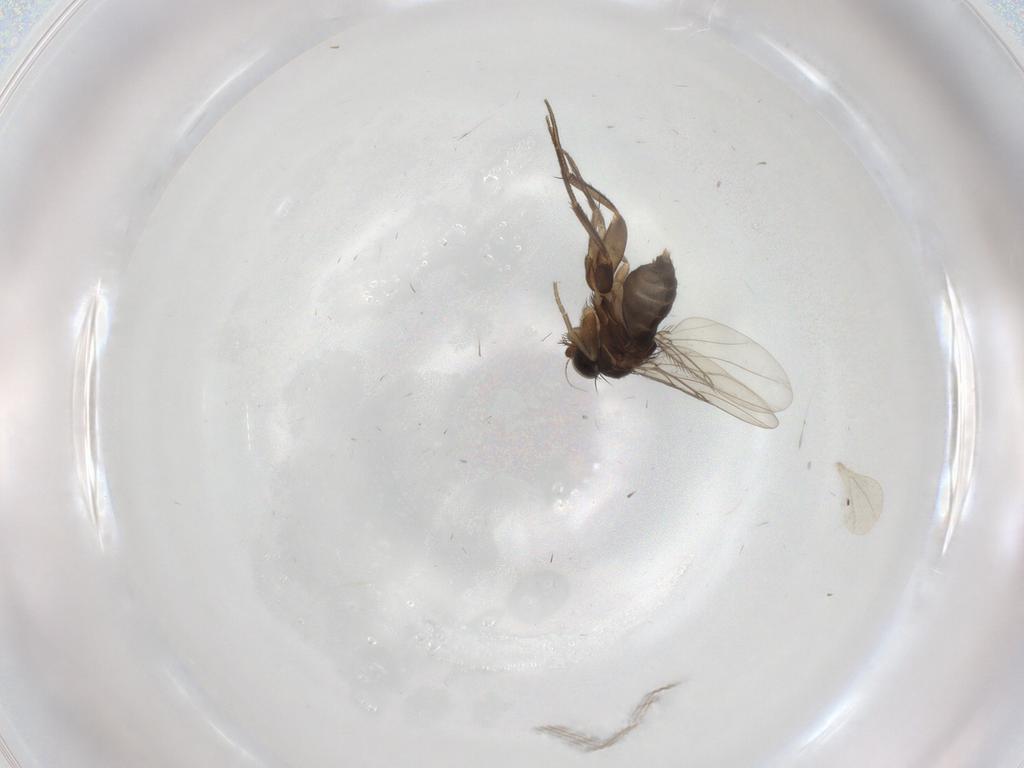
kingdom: Animalia
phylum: Arthropoda
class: Insecta
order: Diptera
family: Phoridae
